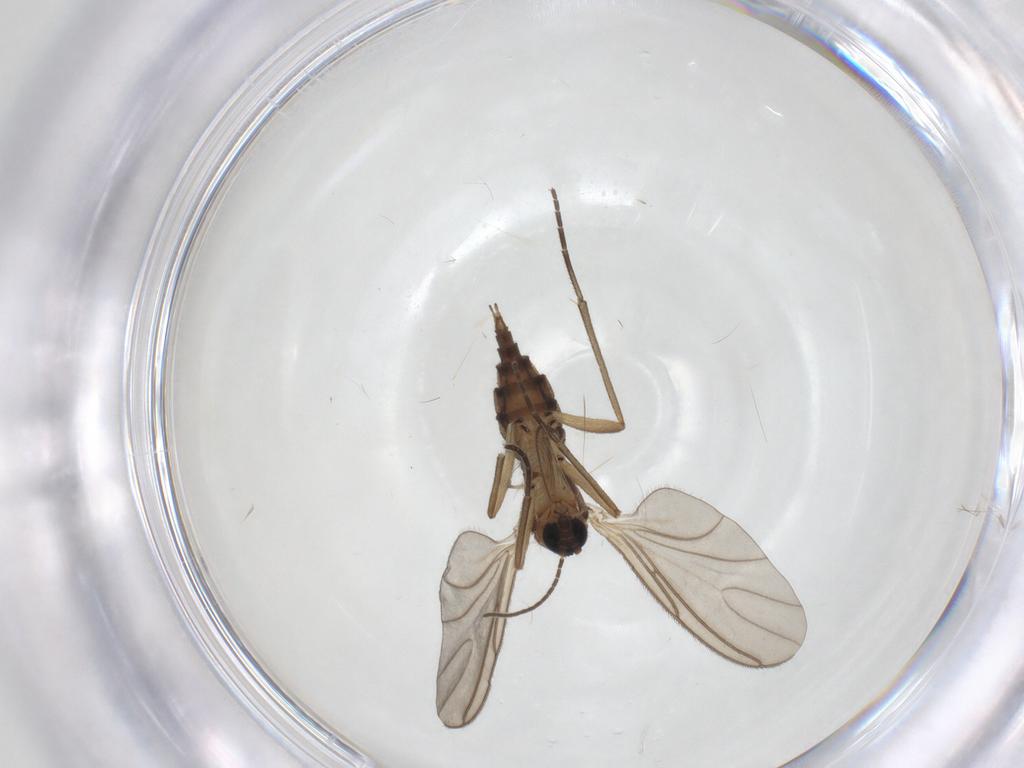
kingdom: Animalia
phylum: Arthropoda
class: Insecta
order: Diptera
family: Sciaridae
